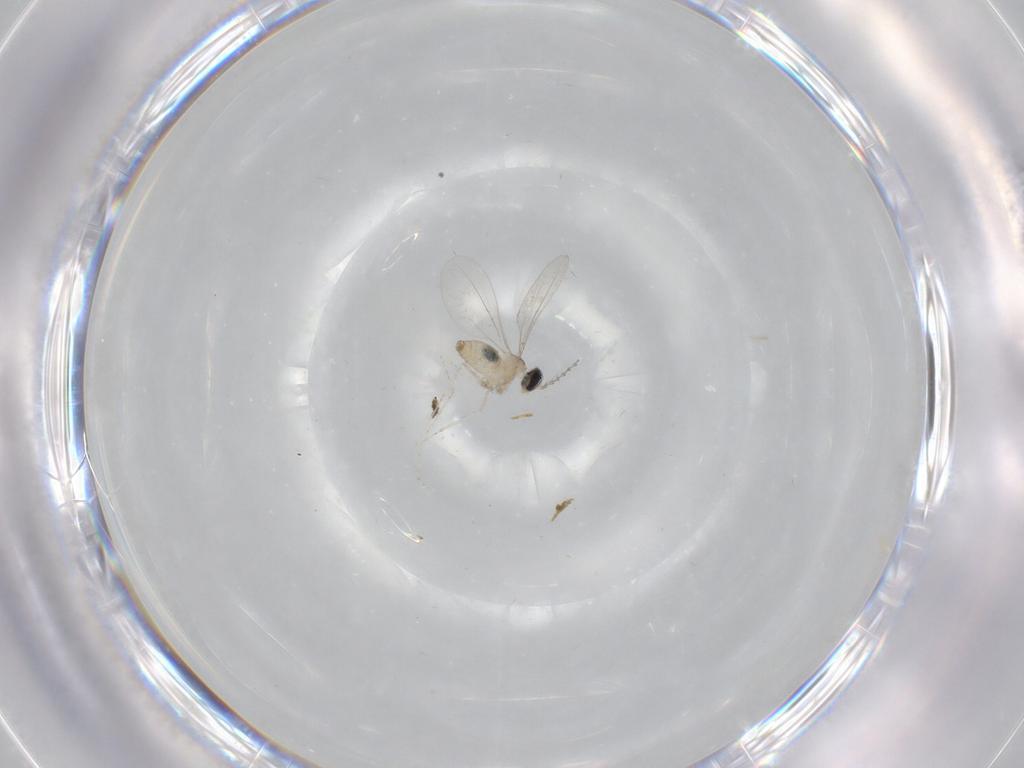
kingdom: Animalia
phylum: Arthropoda
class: Insecta
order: Diptera
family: Cecidomyiidae
